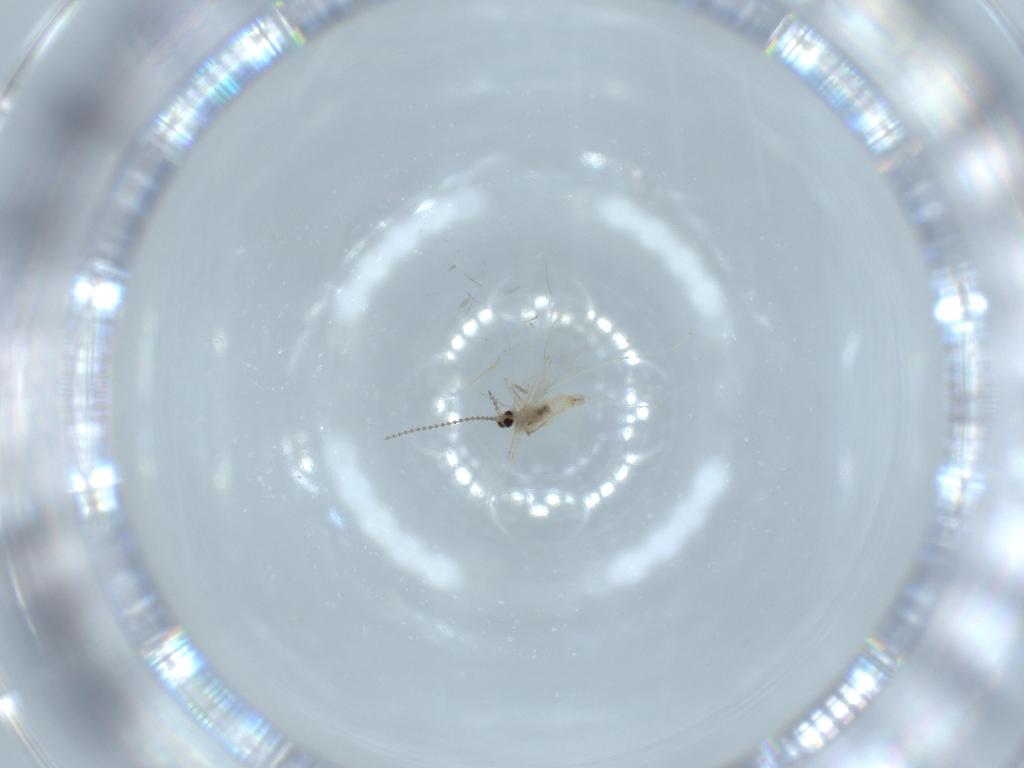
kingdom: Animalia
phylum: Arthropoda
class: Insecta
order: Diptera
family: Cecidomyiidae
